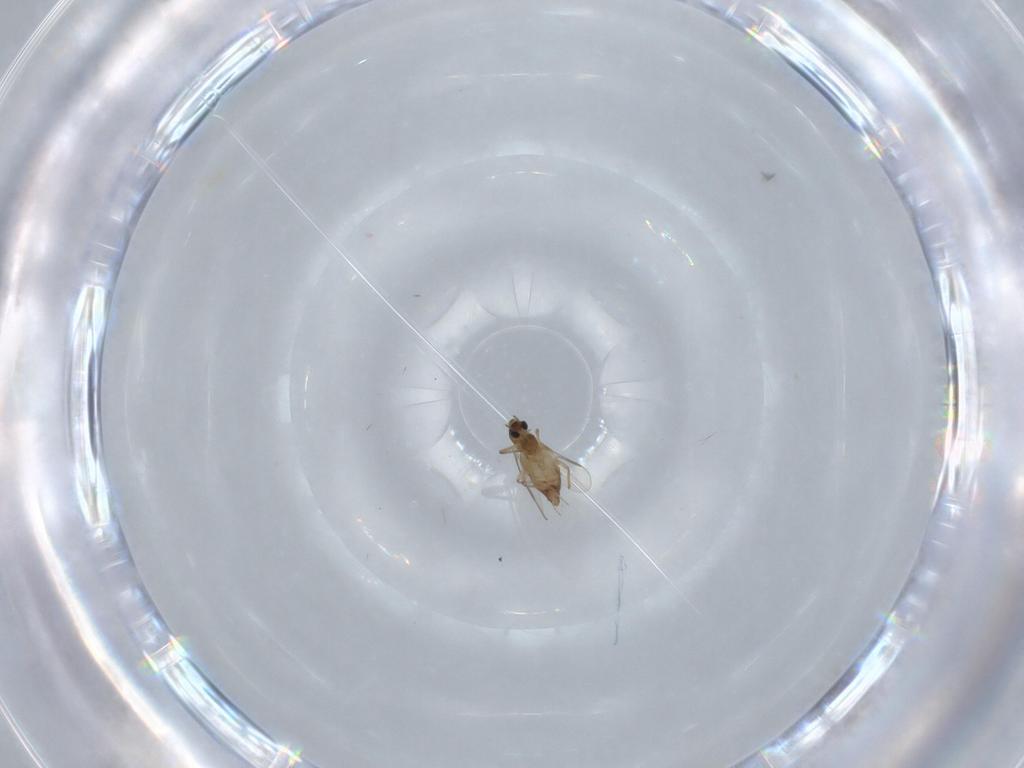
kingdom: Animalia
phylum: Arthropoda
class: Insecta
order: Diptera
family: Chironomidae
